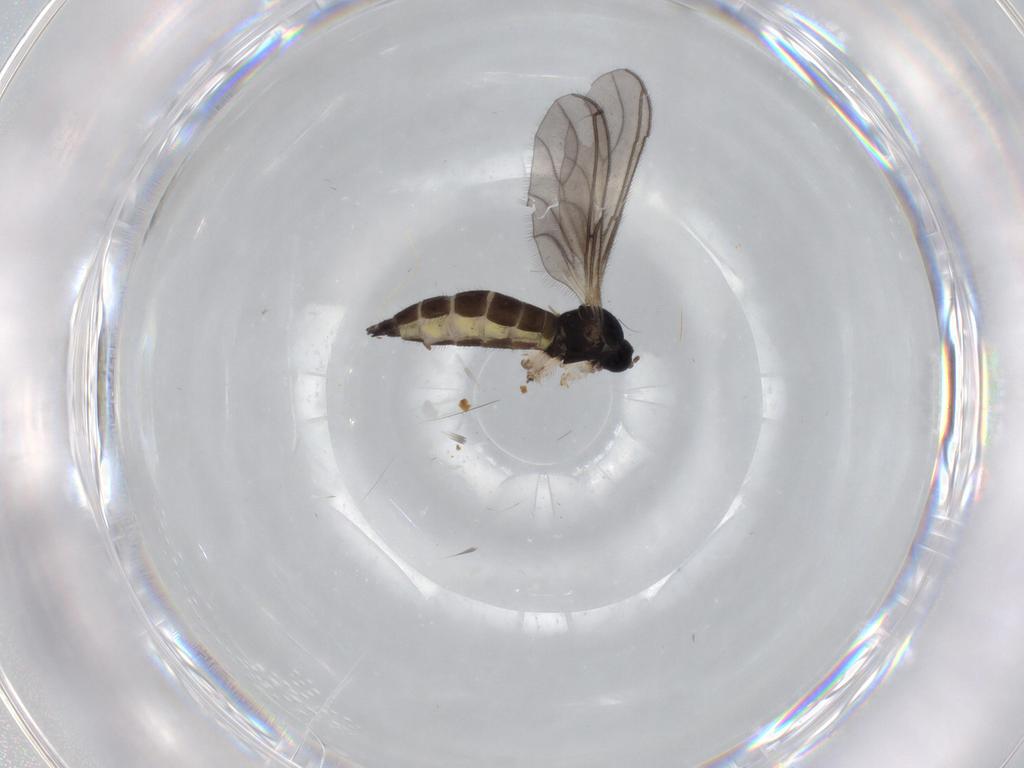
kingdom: Animalia
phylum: Arthropoda
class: Insecta
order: Diptera
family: Sciaridae
